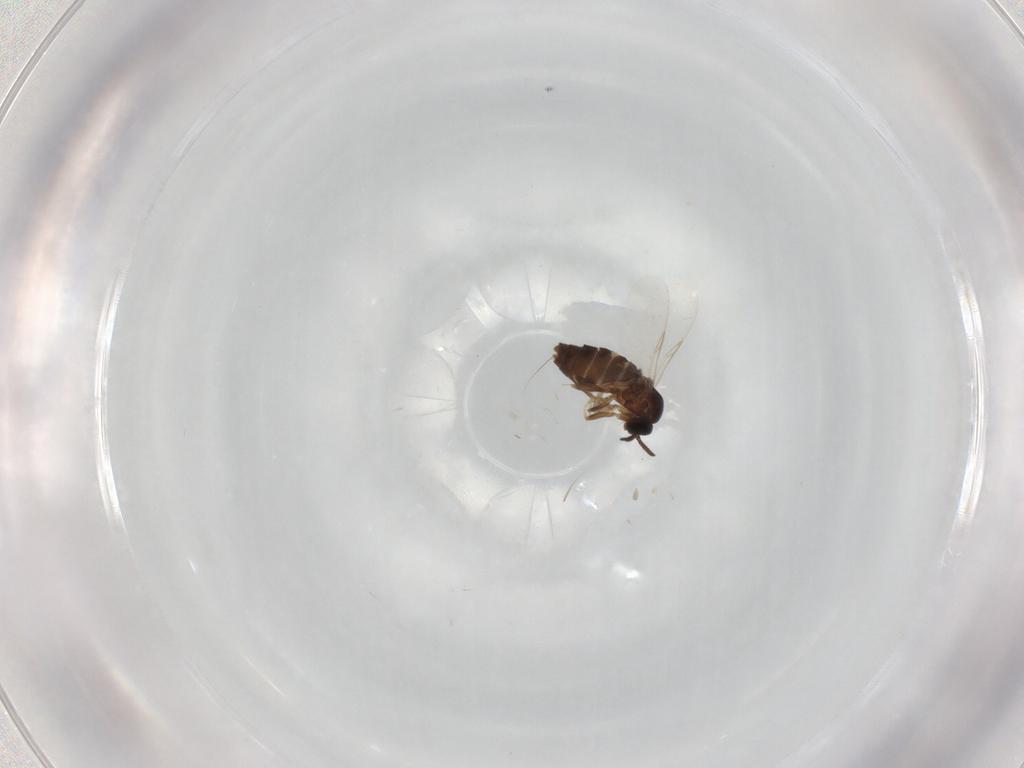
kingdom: Animalia
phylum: Arthropoda
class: Insecta
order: Diptera
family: Scatopsidae
